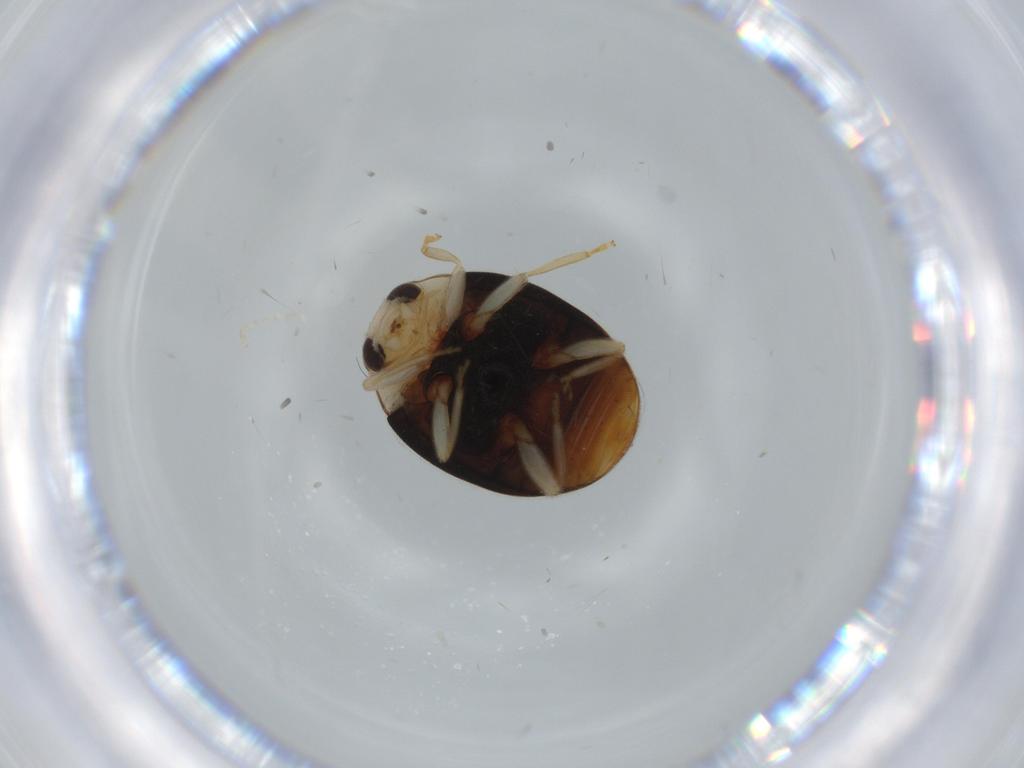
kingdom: Animalia
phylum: Arthropoda
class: Insecta
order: Coleoptera
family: Coccinellidae
